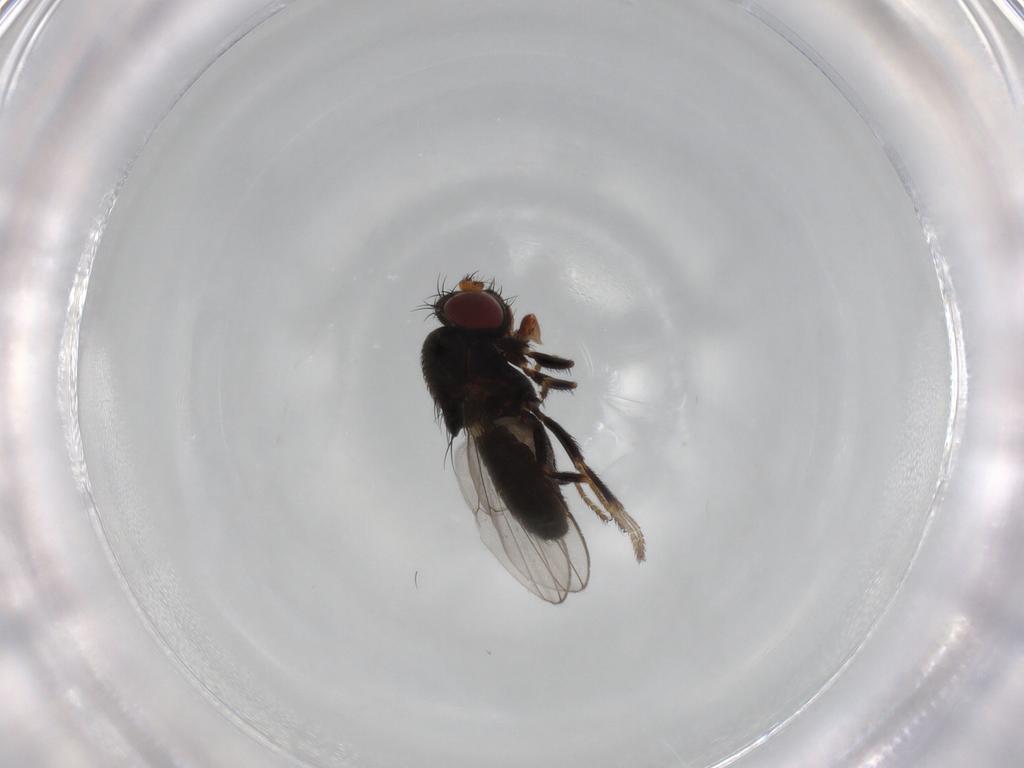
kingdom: Animalia
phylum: Arthropoda
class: Insecta
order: Diptera
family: Ephydridae
